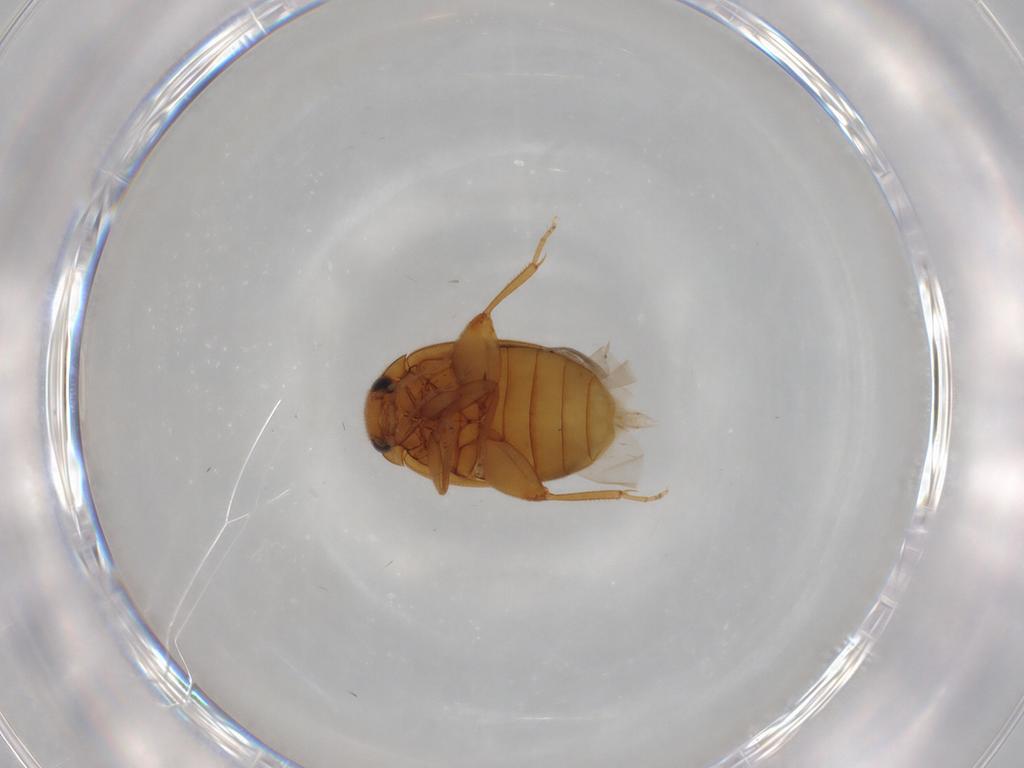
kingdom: Animalia
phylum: Arthropoda
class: Insecta
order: Coleoptera
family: Scirtidae
